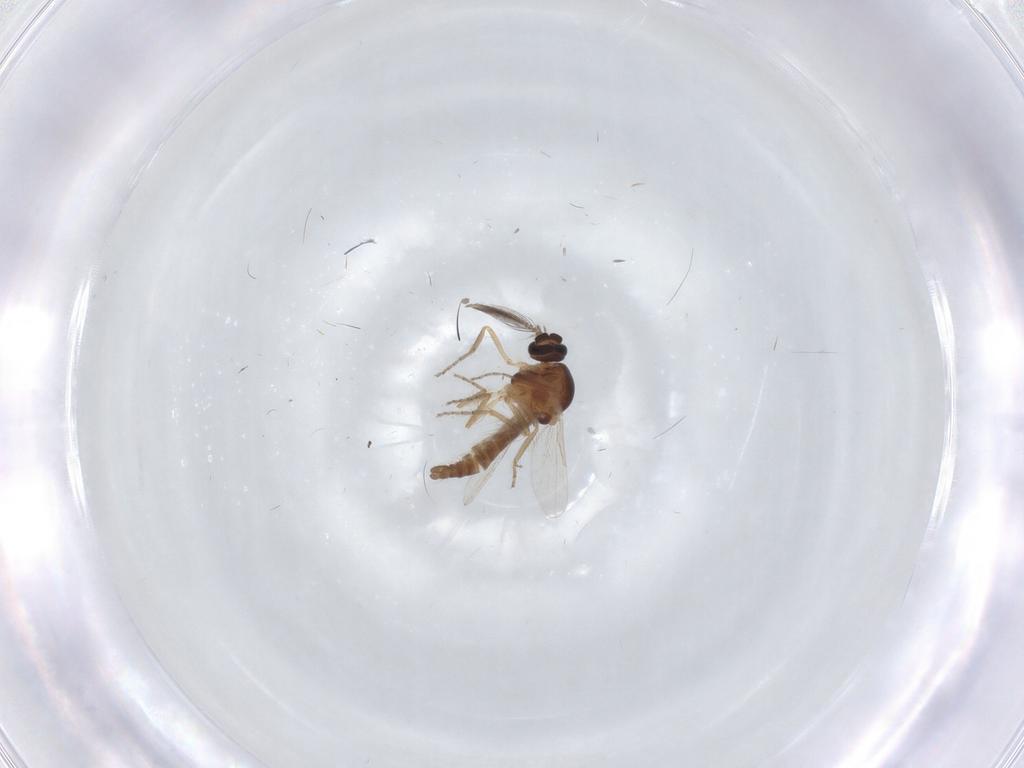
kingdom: Animalia
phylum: Arthropoda
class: Insecta
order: Diptera
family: Ceratopogonidae
